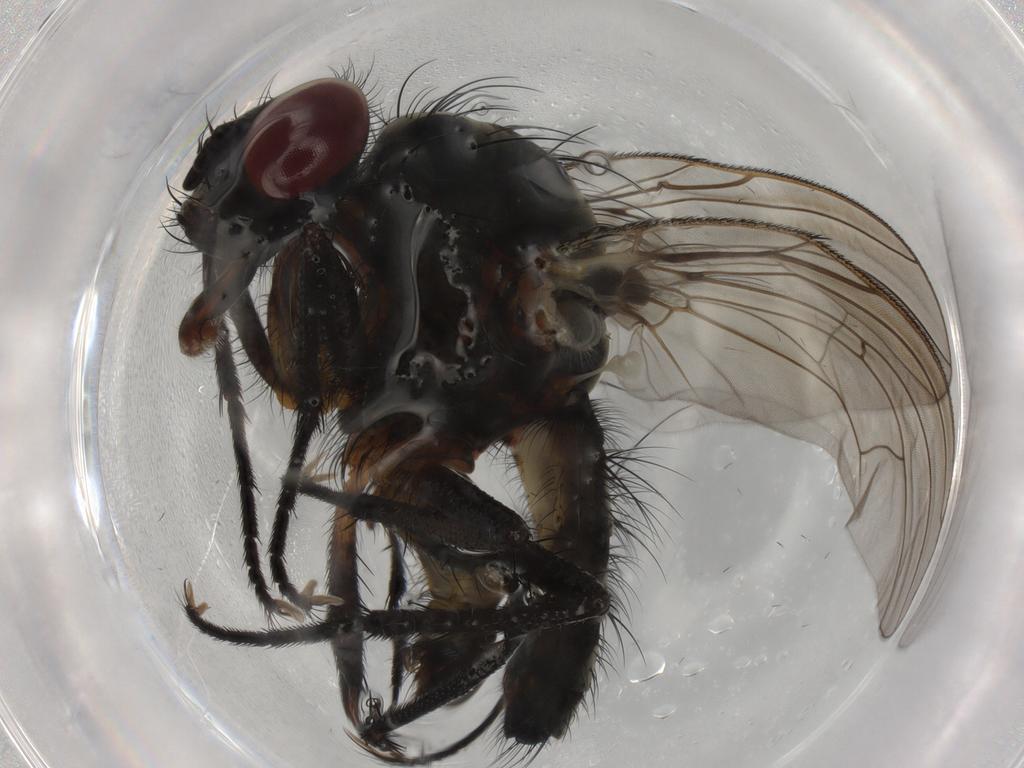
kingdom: Animalia
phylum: Arthropoda
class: Insecta
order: Diptera
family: Anthomyiidae
